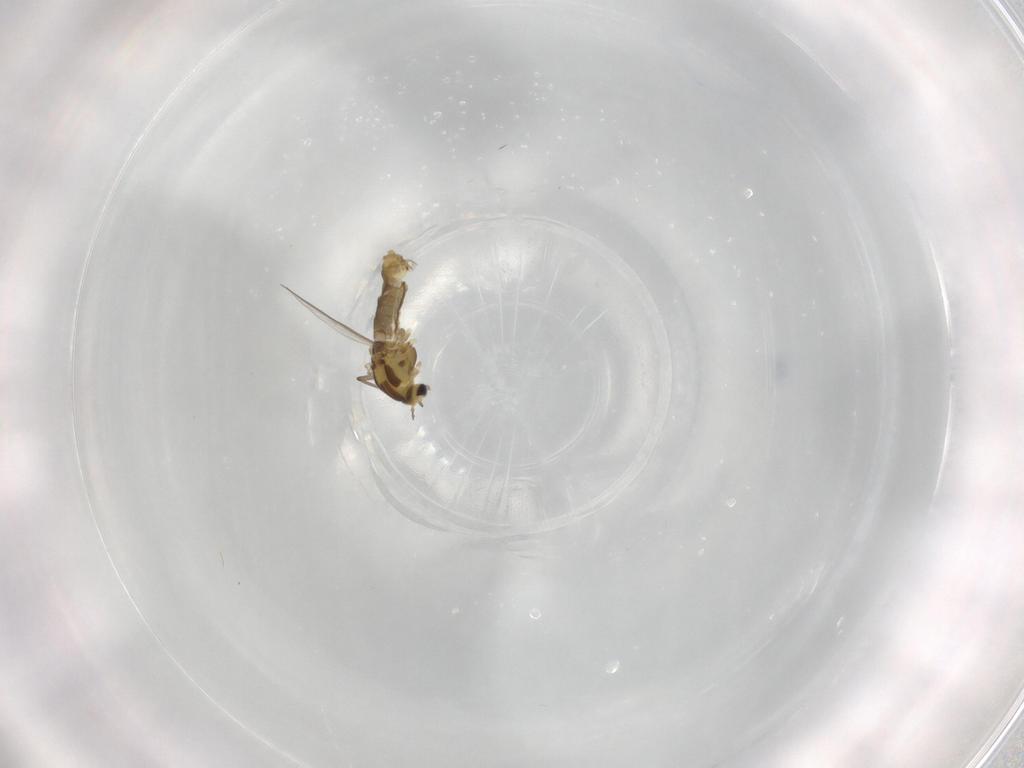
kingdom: Animalia
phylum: Arthropoda
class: Insecta
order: Diptera
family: Chironomidae
